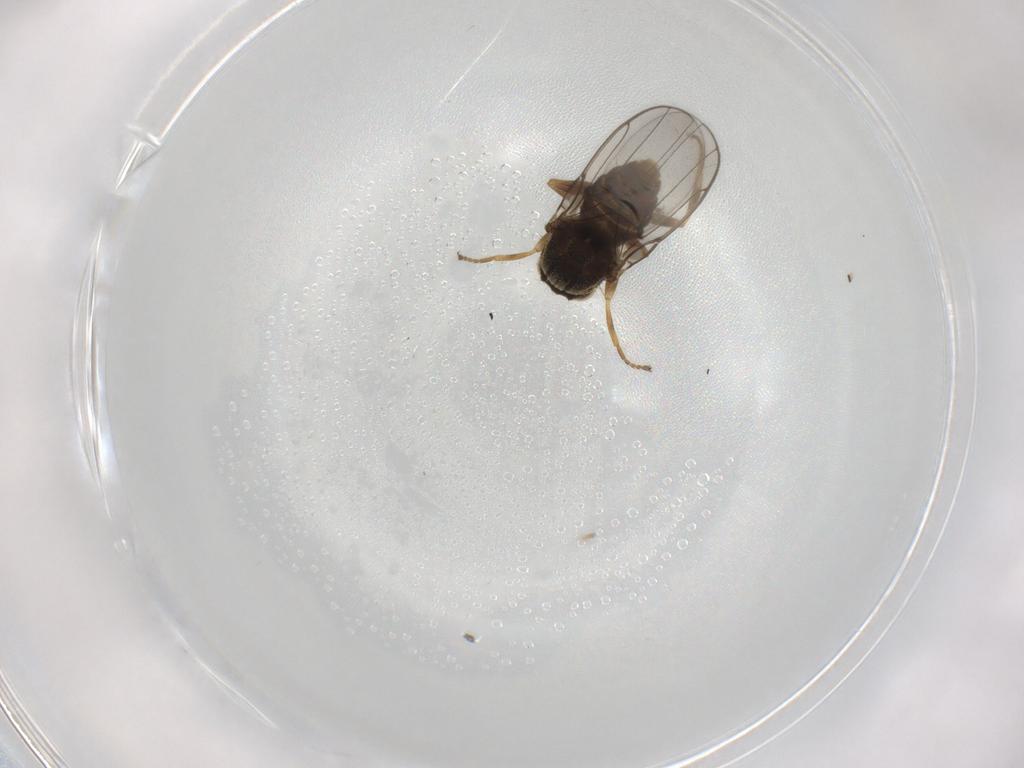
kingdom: Animalia
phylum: Arthropoda
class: Insecta
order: Diptera
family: Chloropidae
